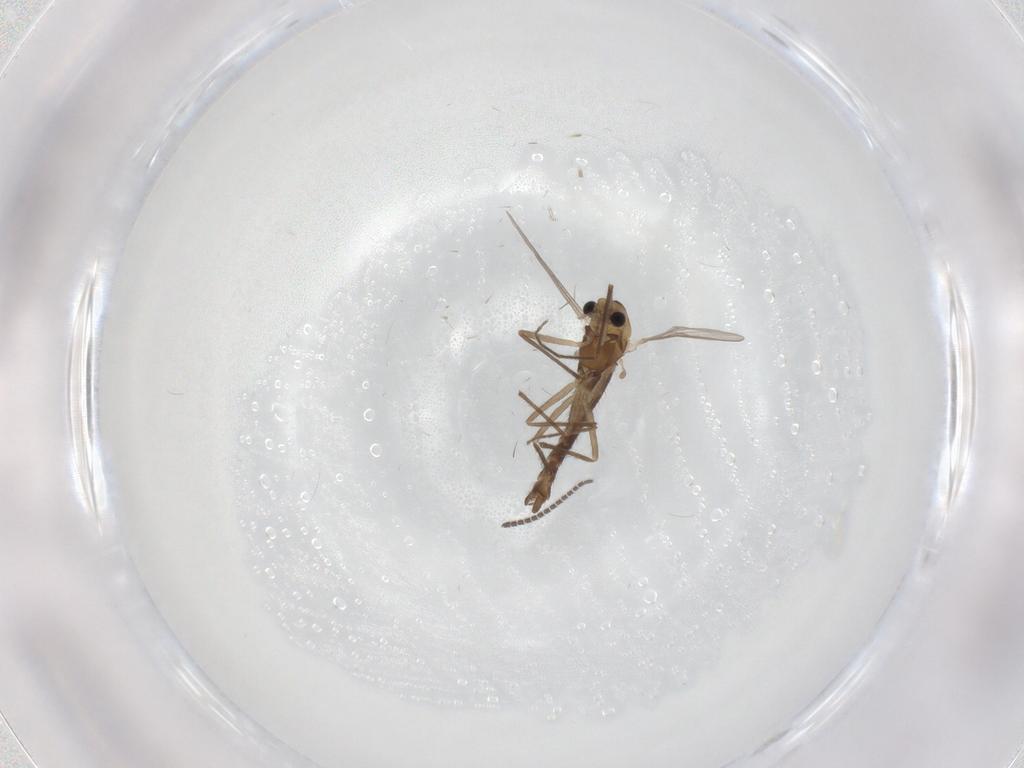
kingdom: Animalia
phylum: Arthropoda
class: Insecta
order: Diptera
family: Chironomidae
